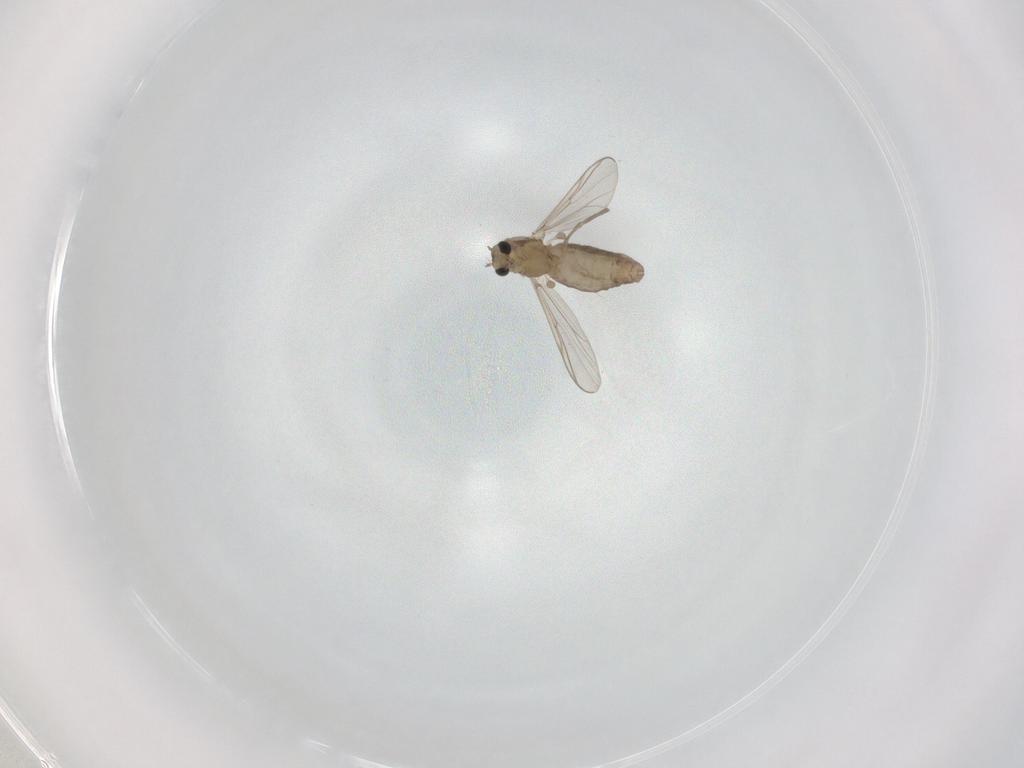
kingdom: Animalia
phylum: Arthropoda
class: Insecta
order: Diptera
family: Chironomidae
